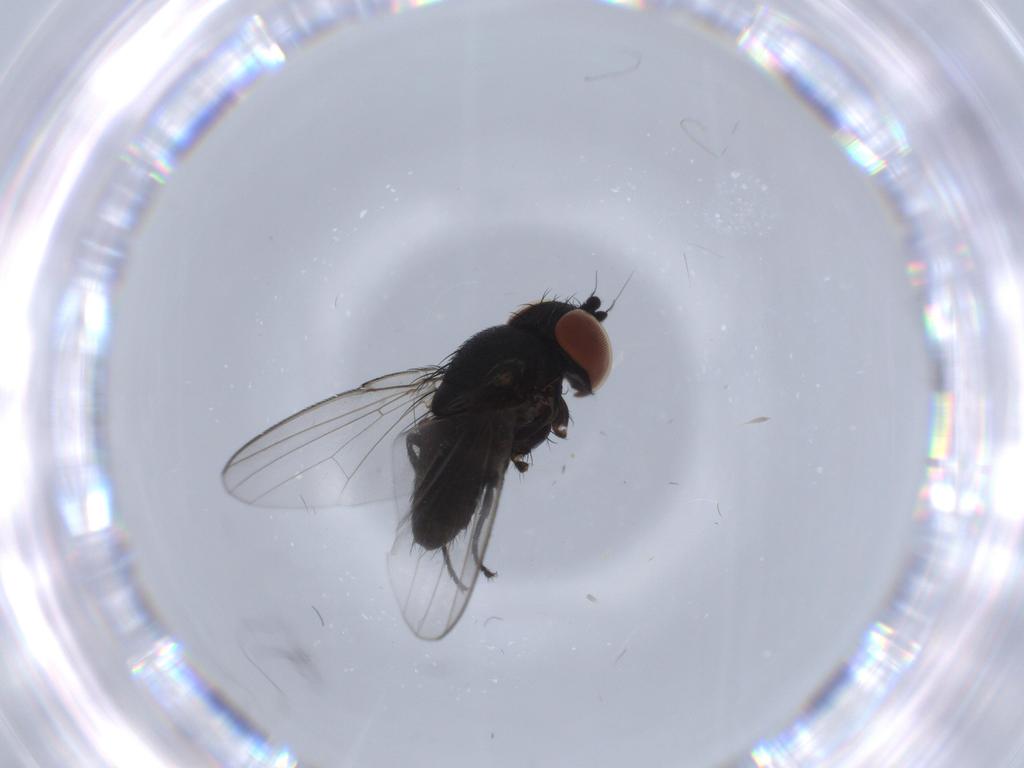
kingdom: Animalia
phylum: Arthropoda
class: Insecta
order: Diptera
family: Milichiidae
